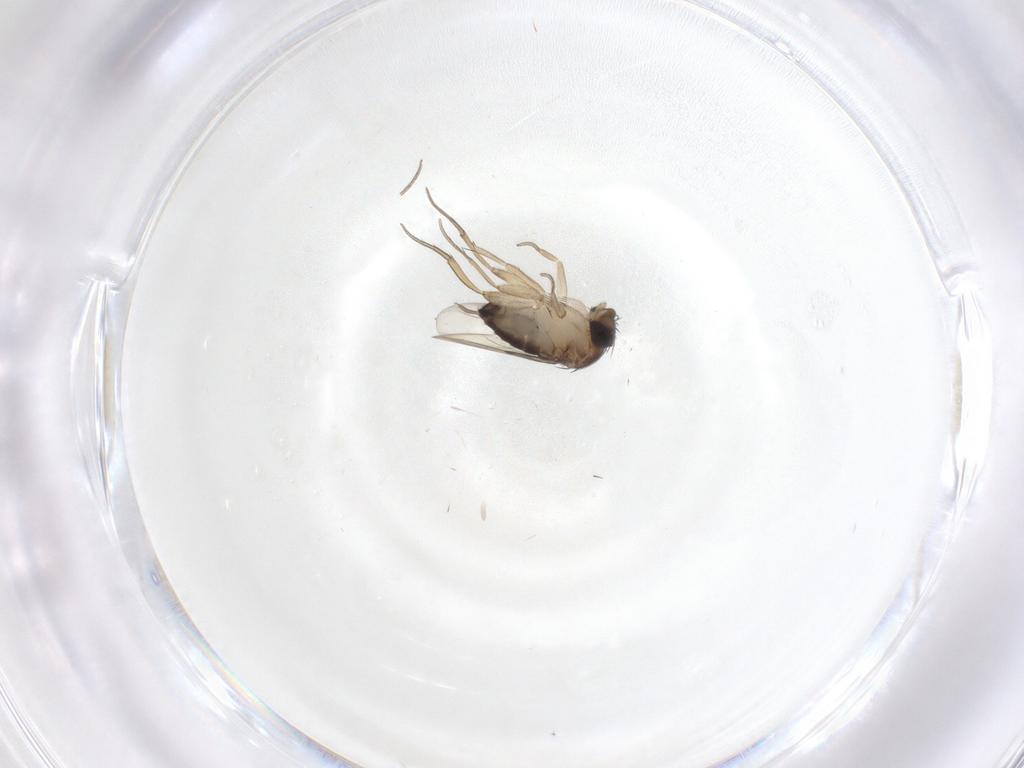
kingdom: Animalia
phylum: Arthropoda
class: Insecta
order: Diptera
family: Phoridae
